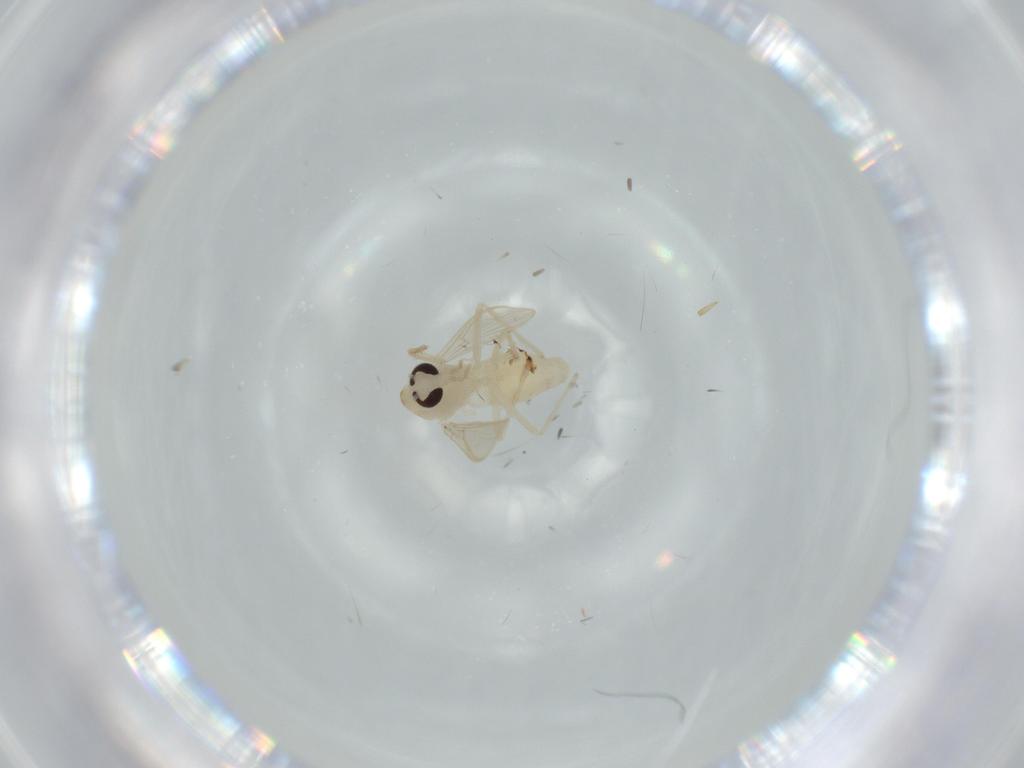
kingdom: Animalia
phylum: Arthropoda
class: Insecta
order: Diptera
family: Chironomidae
